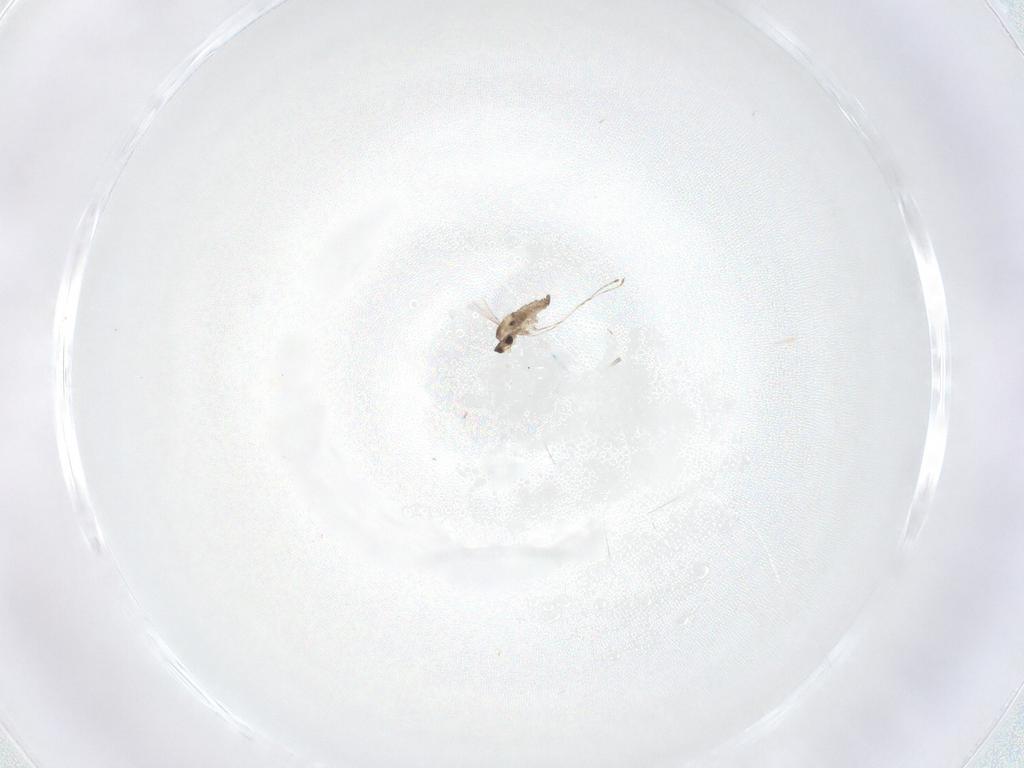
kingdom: Animalia
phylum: Arthropoda
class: Insecta
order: Diptera
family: Cecidomyiidae
